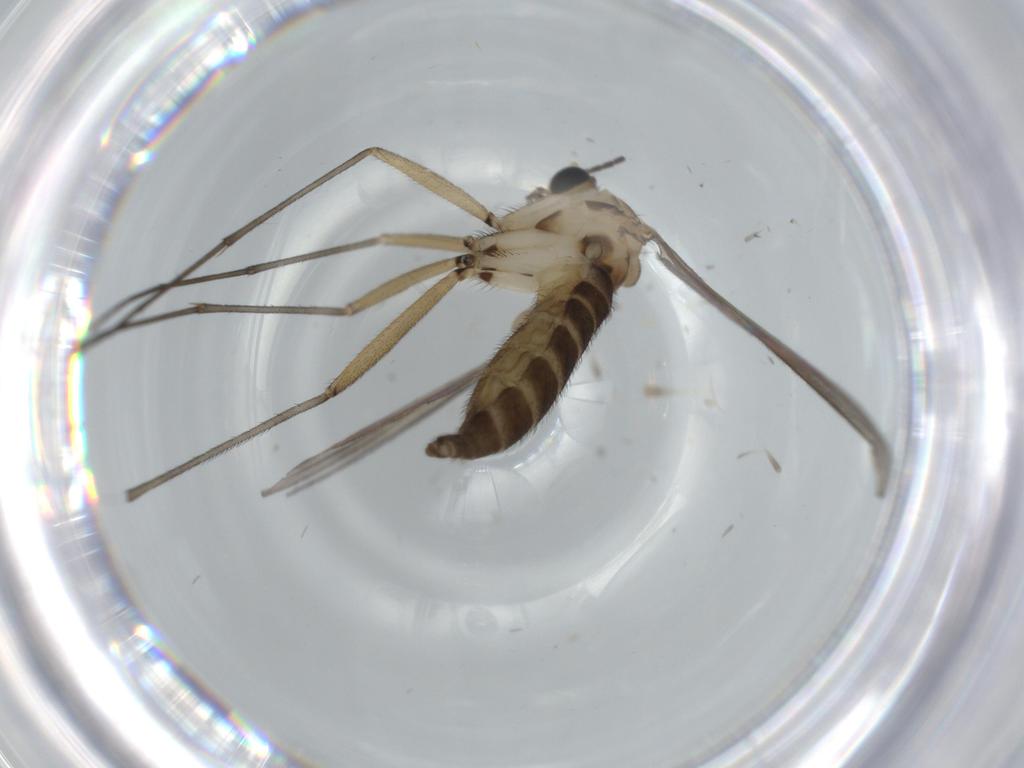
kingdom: Animalia
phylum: Arthropoda
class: Insecta
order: Diptera
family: Sciaridae
